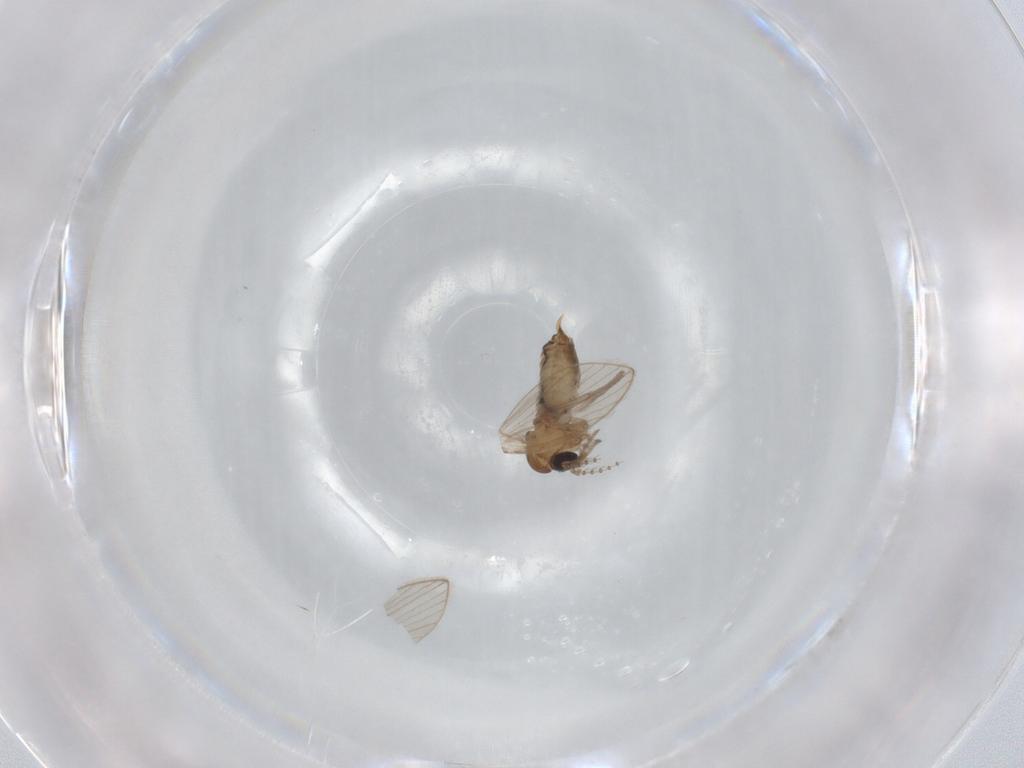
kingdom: Animalia
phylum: Arthropoda
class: Insecta
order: Diptera
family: Psychodidae
